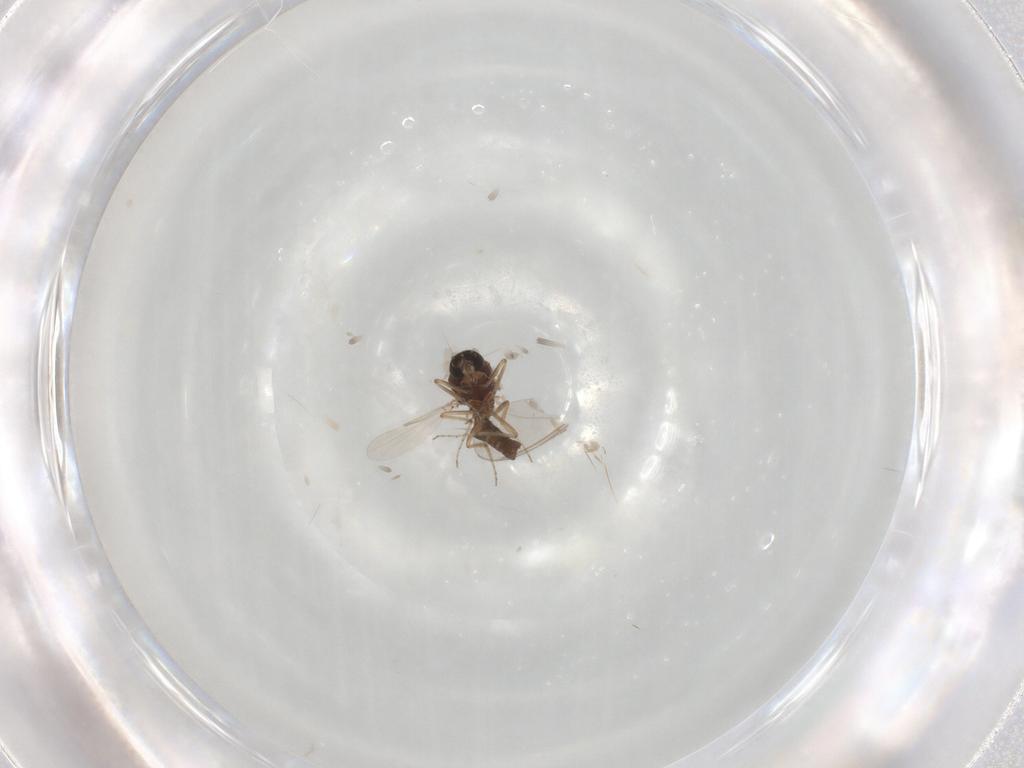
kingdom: Animalia
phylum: Arthropoda
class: Insecta
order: Diptera
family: Ceratopogonidae
